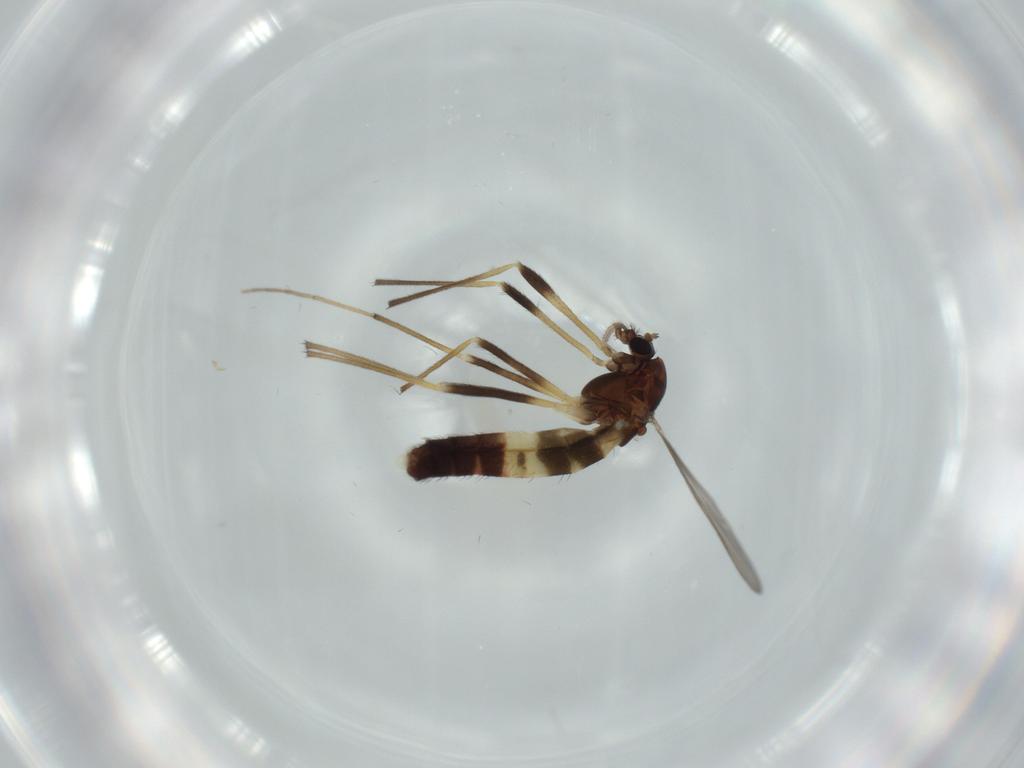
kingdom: Animalia
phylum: Arthropoda
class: Insecta
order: Diptera
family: Chironomidae
